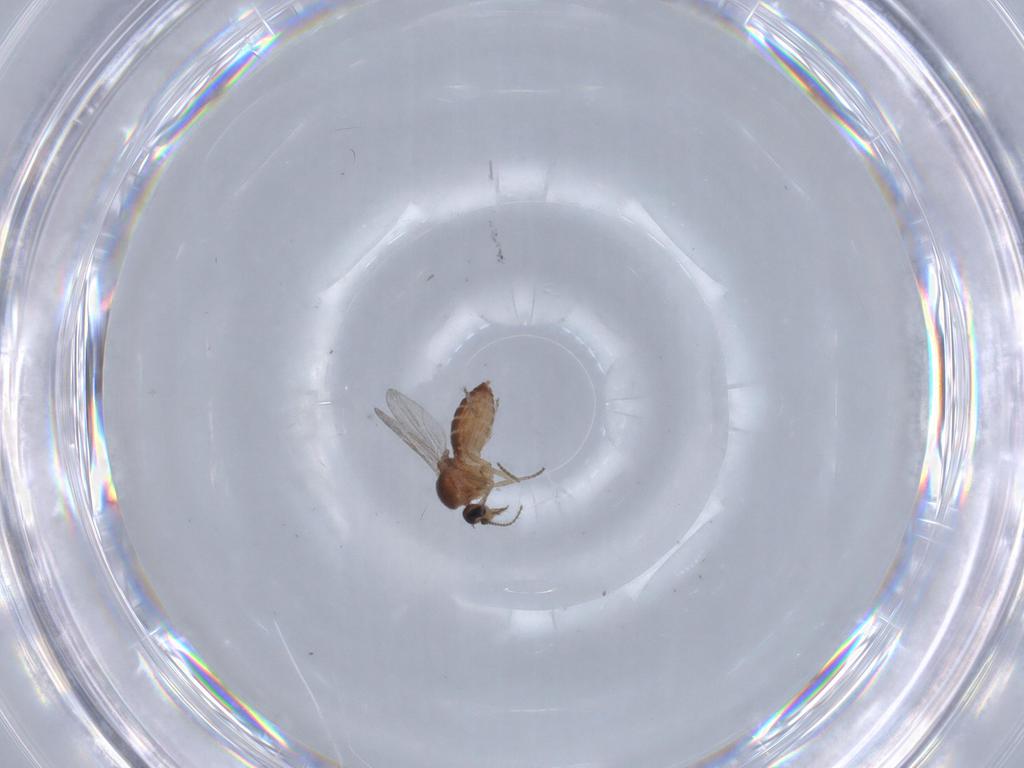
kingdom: Animalia
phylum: Arthropoda
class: Insecta
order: Diptera
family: Ceratopogonidae
